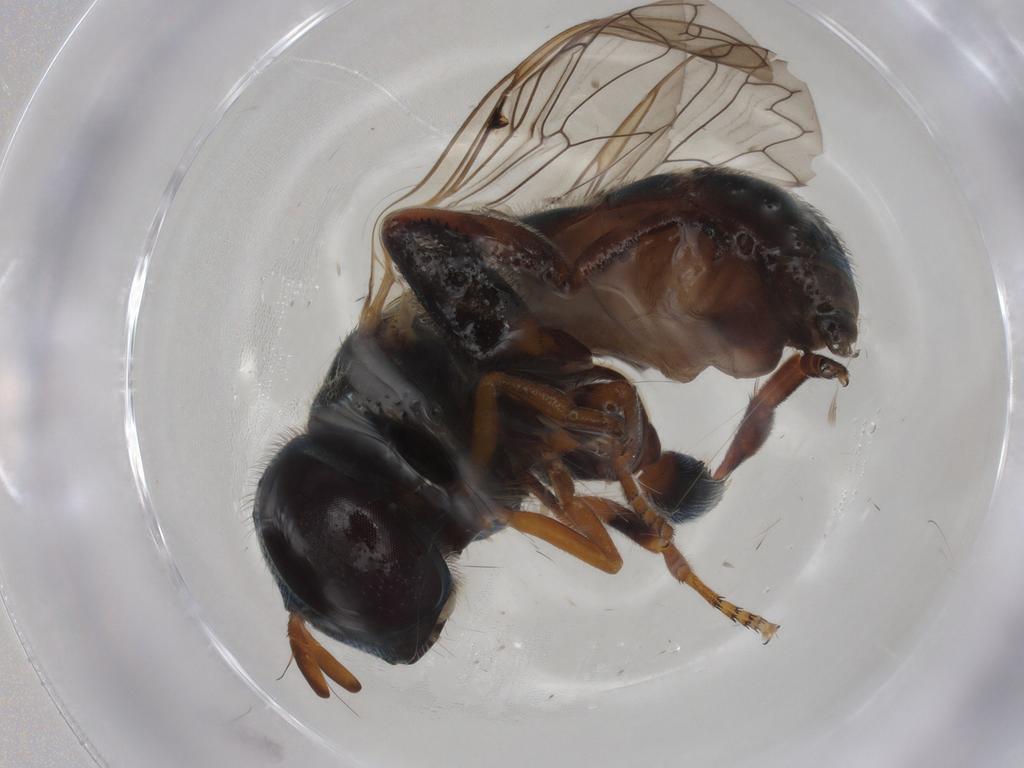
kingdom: Animalia
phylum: Arthropoda
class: Insecta
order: Diptera
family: Syrphidae
